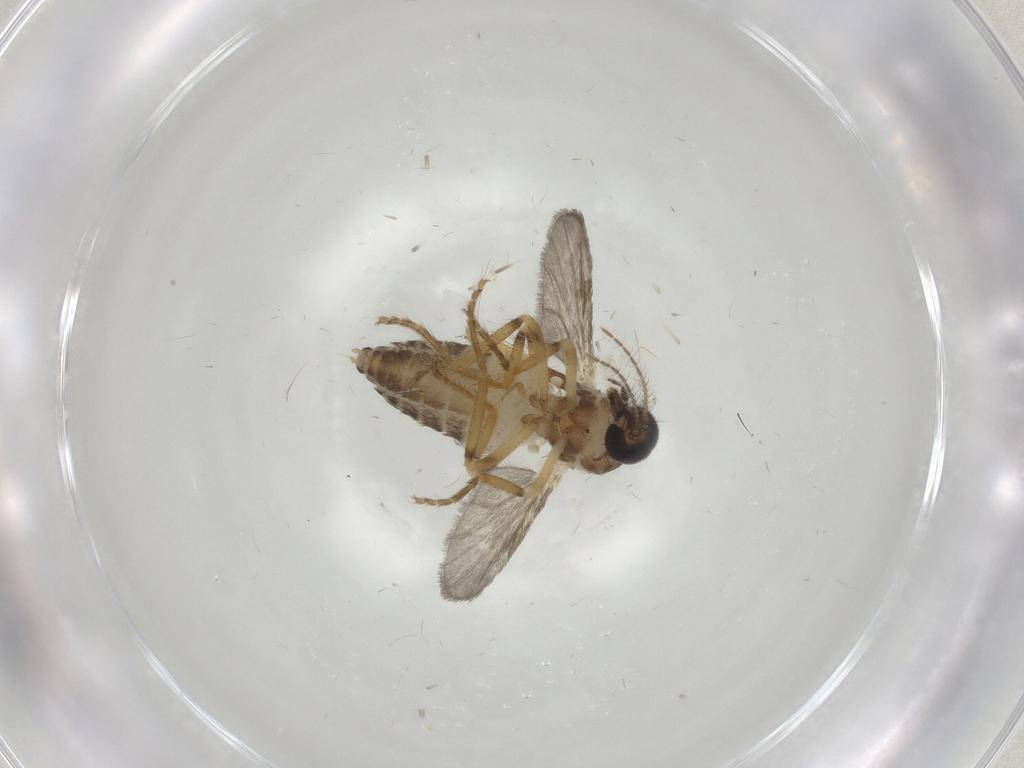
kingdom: Animalia
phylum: Arthropoda
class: Insecta
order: Diptera
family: Ceratopogonidae
